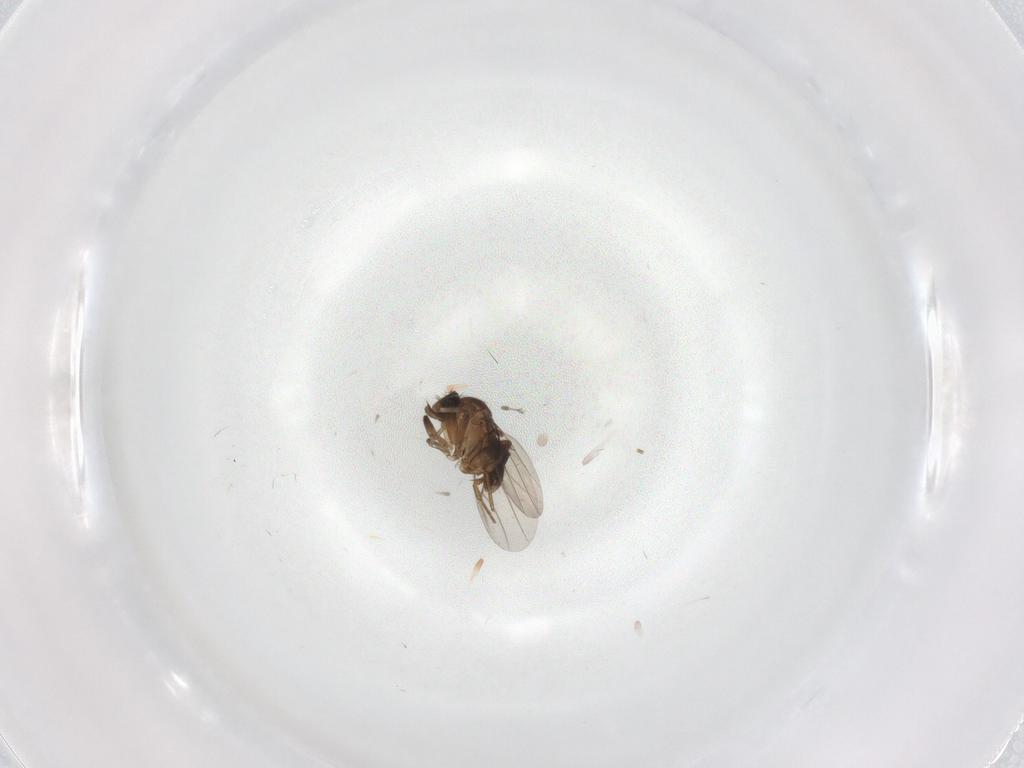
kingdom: Animalia
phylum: Arthropoda
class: Insecta
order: Diptera
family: Phoridae
